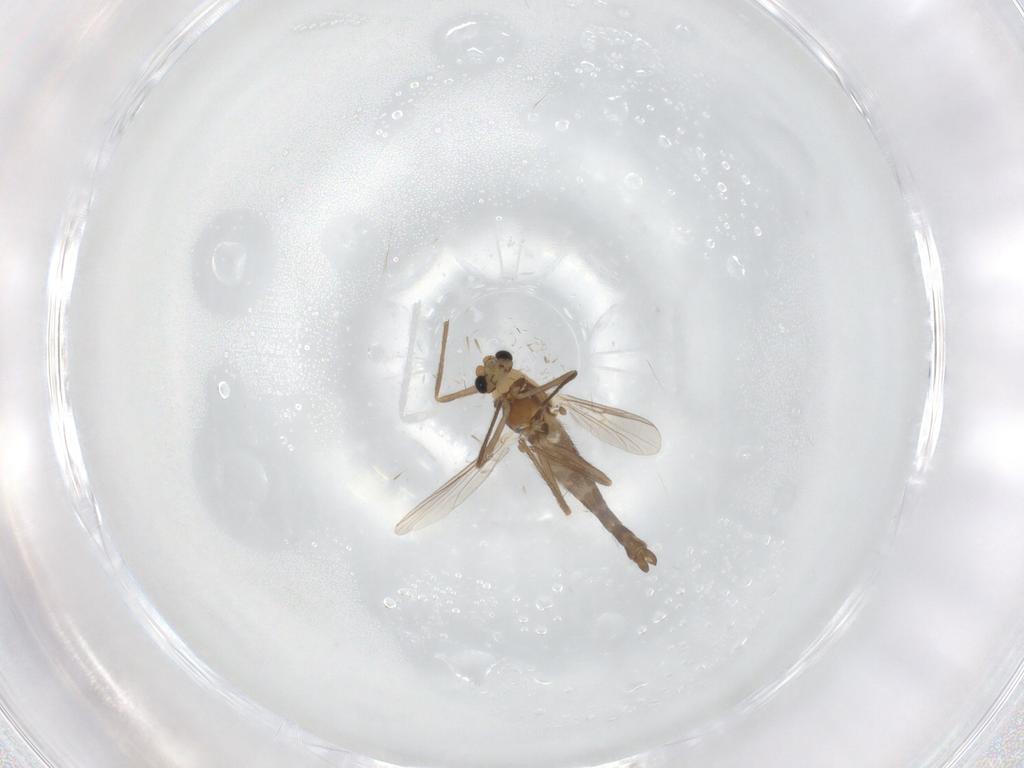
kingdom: Animalia
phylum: Arthropoda
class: Insecta
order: Diptera
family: Chironomidae
